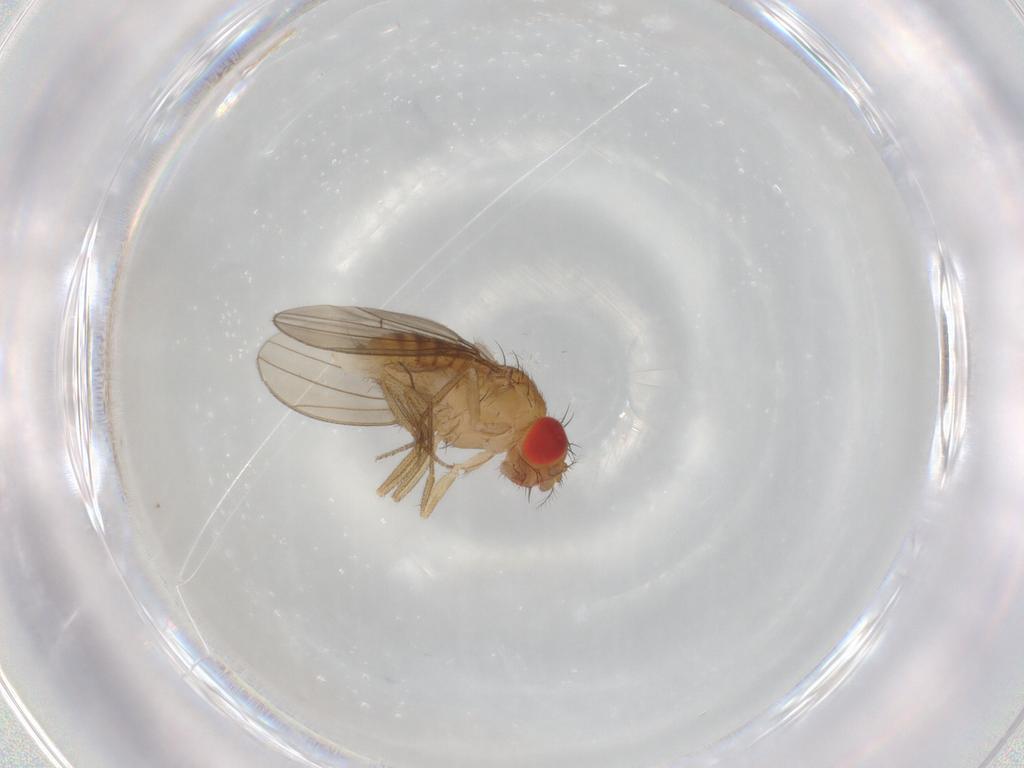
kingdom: Animalia
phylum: Arthropoda
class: Insecta
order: Diptera
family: Drosophilidae
